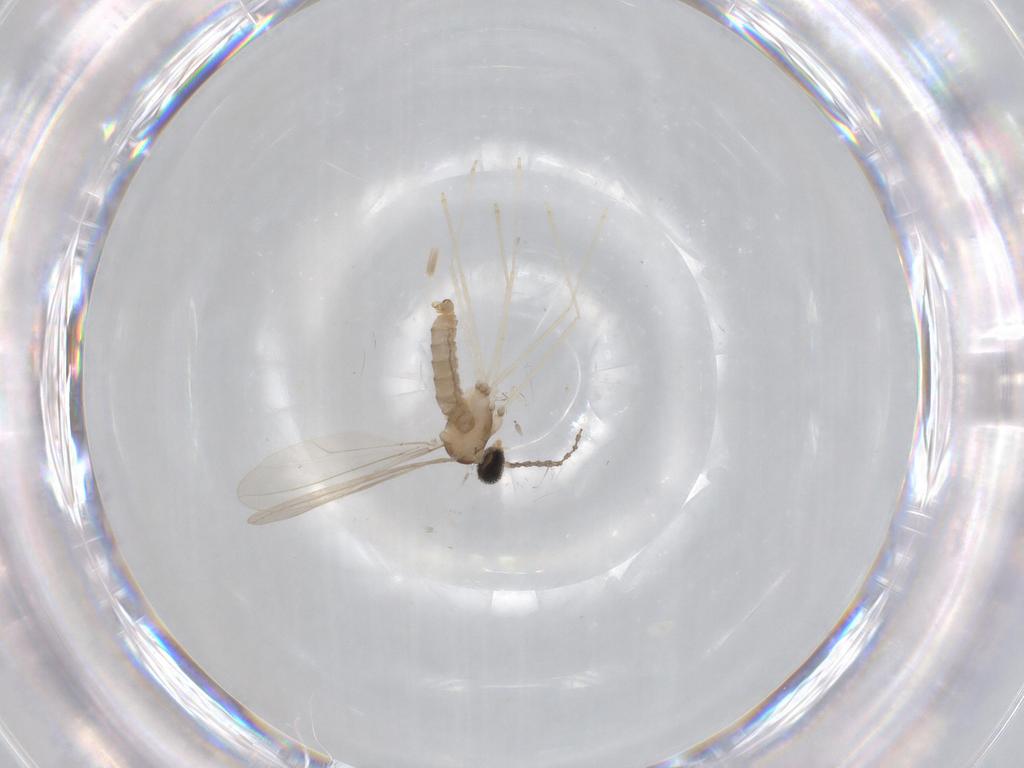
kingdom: Animalia
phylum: Arthropoda
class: Insecta
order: Diptera
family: Cecidomyiidae
